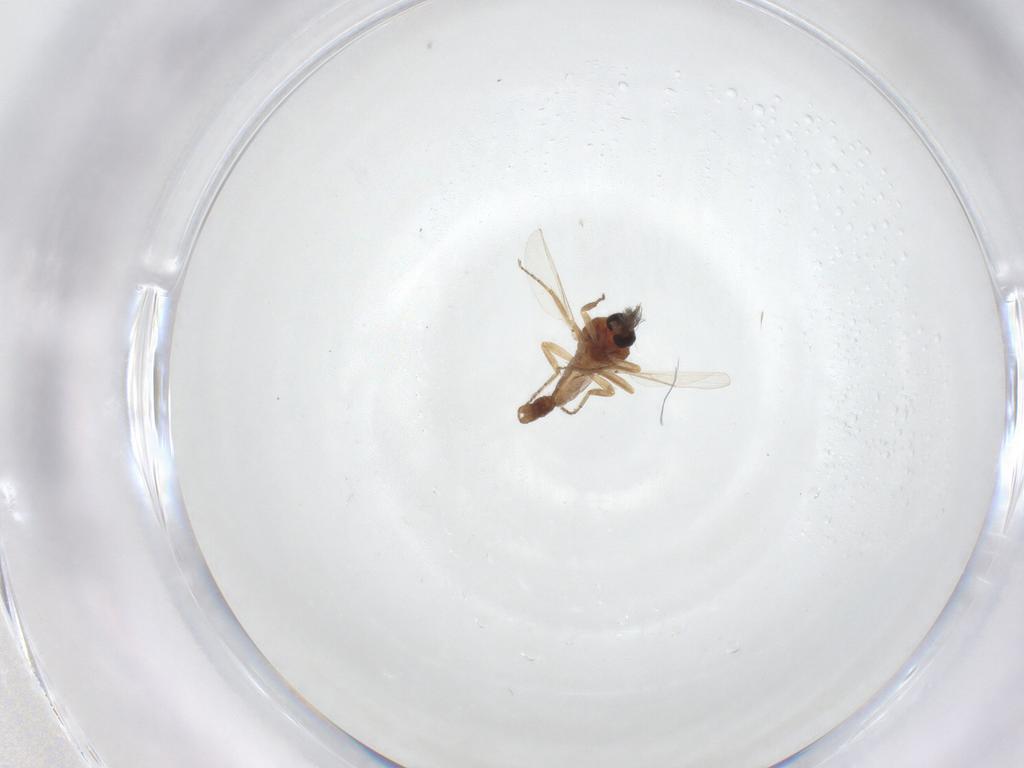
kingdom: Animalia
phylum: Arthropoda
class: Insecta
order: Diptera
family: Ceratopogonidae
